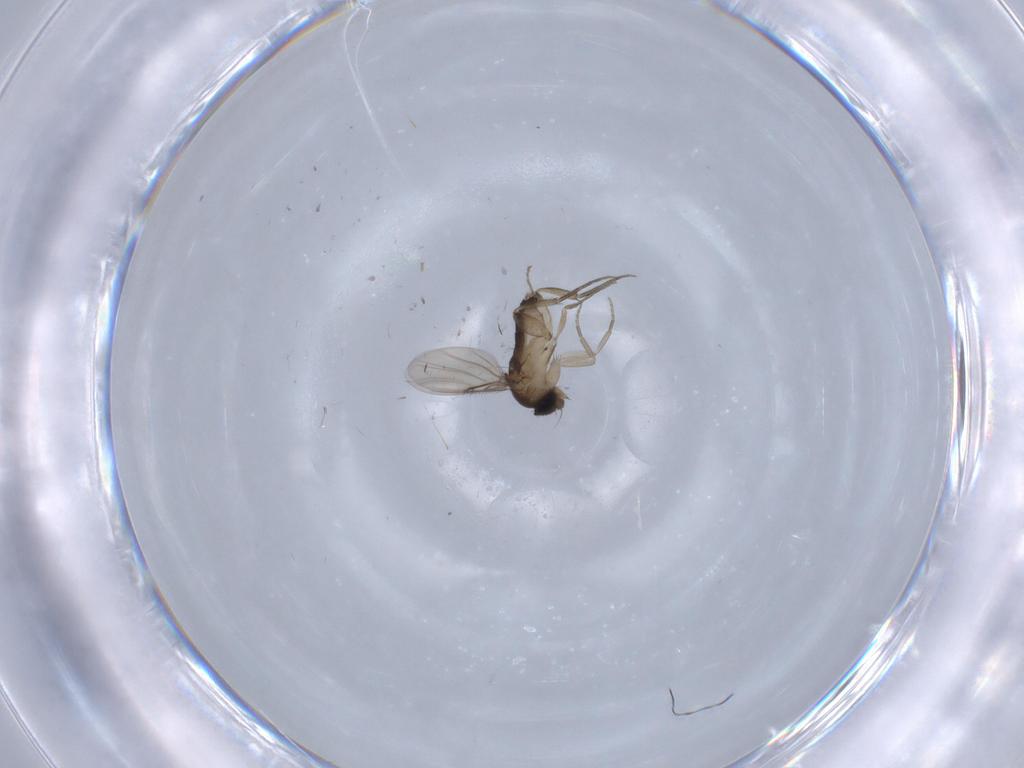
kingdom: Animalia
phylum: Arthropoda
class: Insecta
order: Diptera
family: Phoridae
